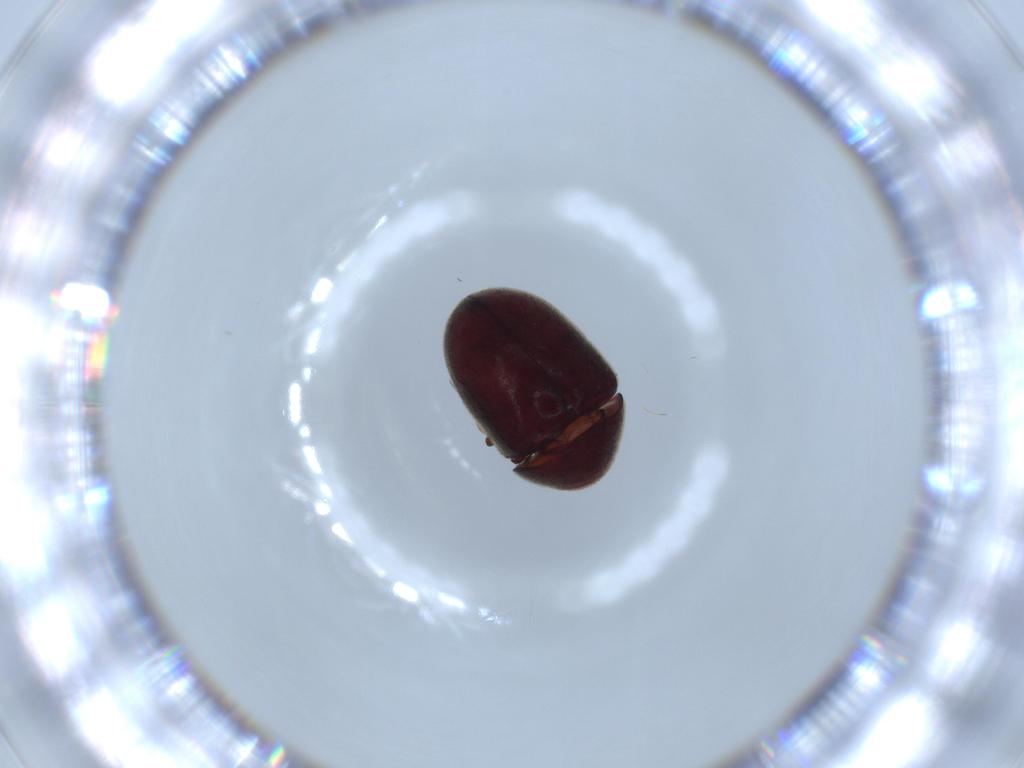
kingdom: Animalia
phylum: Arthropoda
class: Insecta
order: Coleoptera
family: Ptinidae
